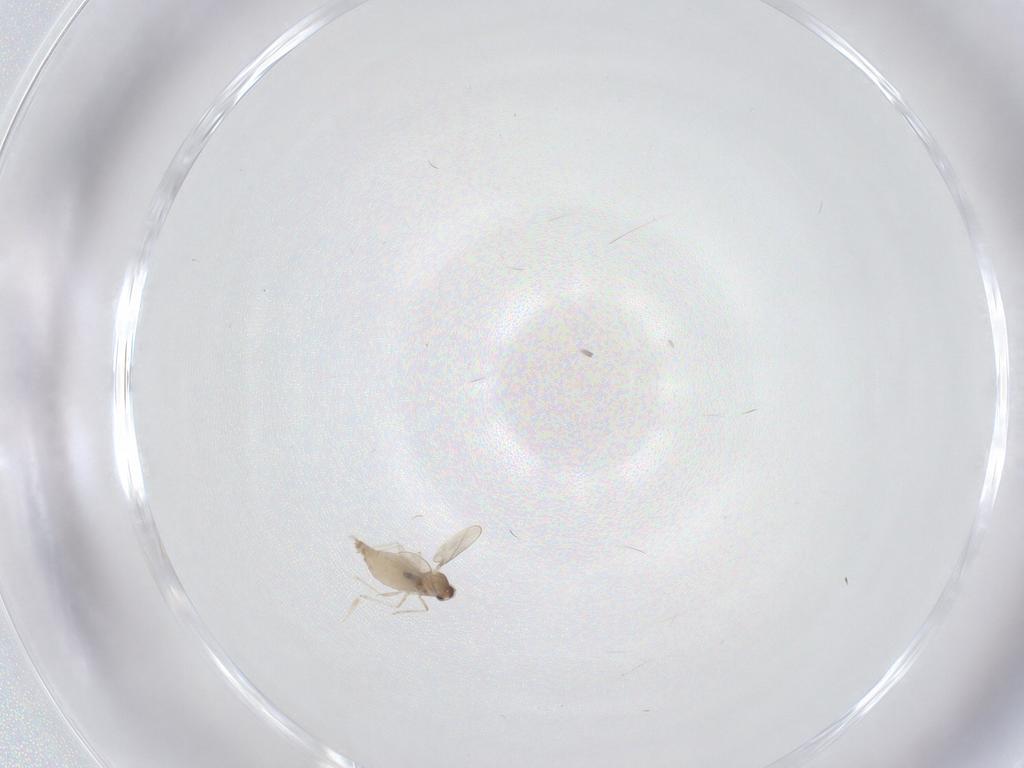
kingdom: Animalia
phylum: Arthropoda
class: Insecta
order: Diptera
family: Cecidomyiidae
